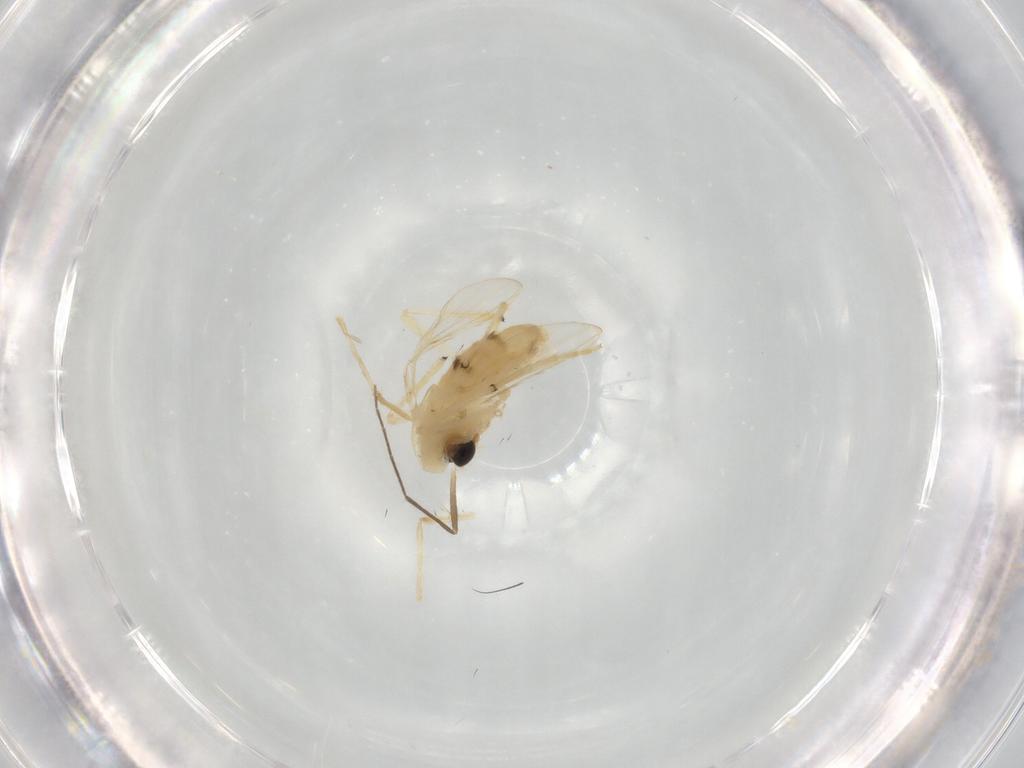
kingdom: Animalia
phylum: Arthropoda
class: Insecta
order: Diptera
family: Chironomidae
